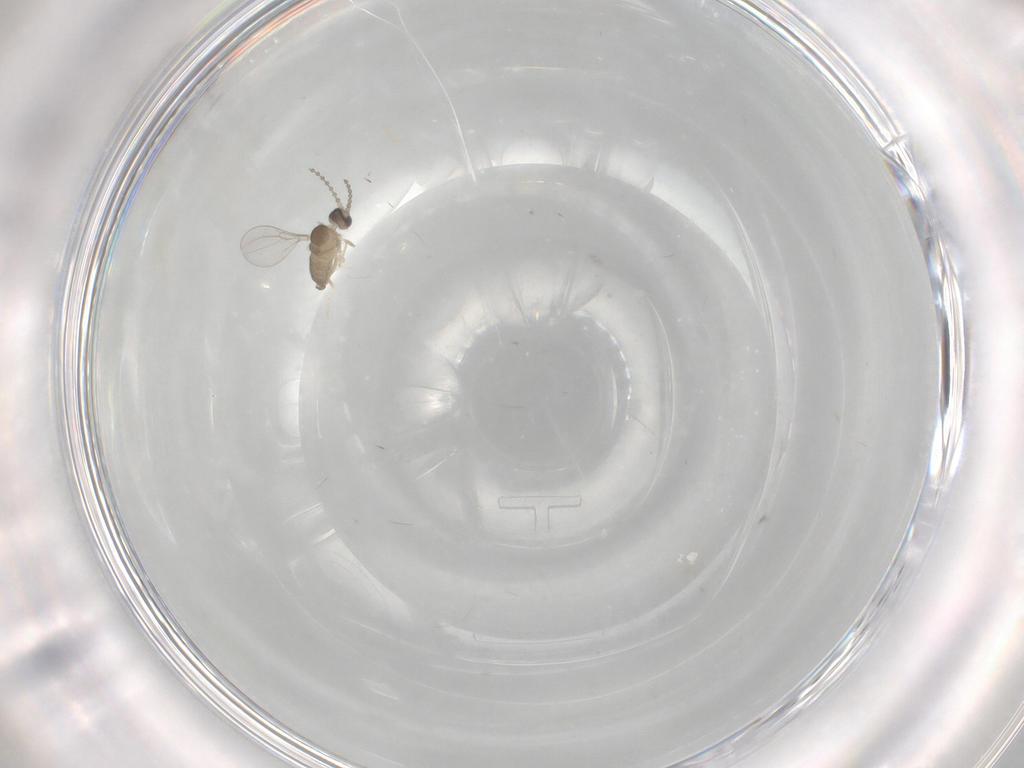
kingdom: Animalia
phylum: Arthropoda
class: Insecta
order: Diptera
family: Cecidomyiidae
